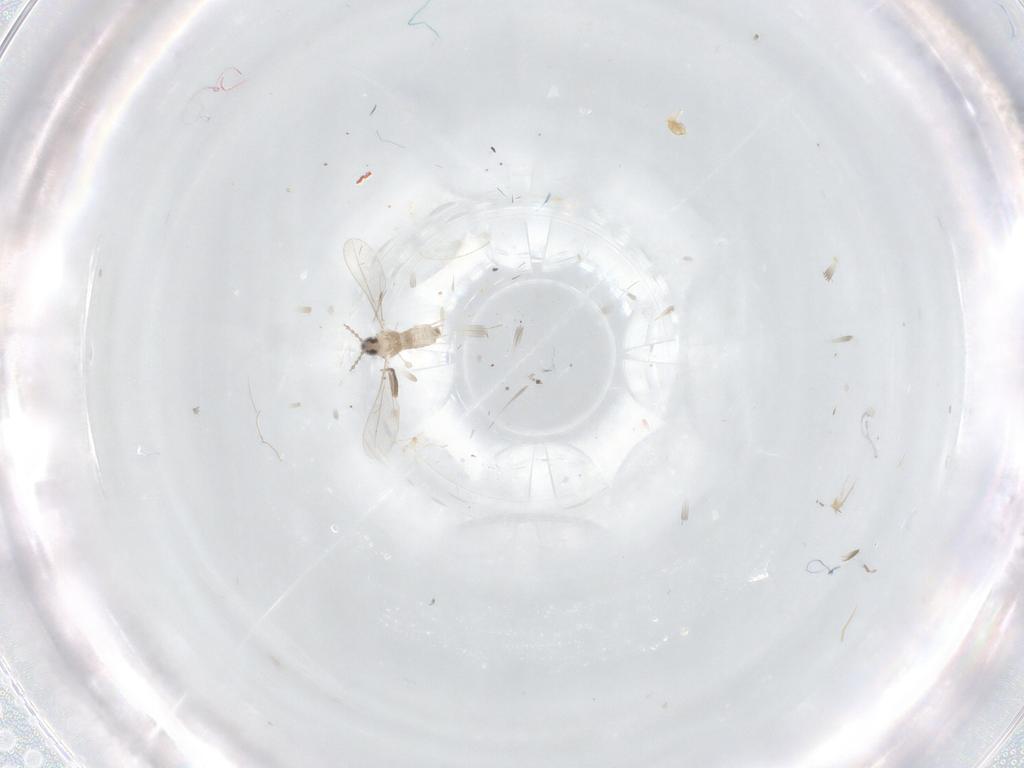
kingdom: Animalia
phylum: Arthropoda
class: Insecta
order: Diptera
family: Cecidomyiidae
